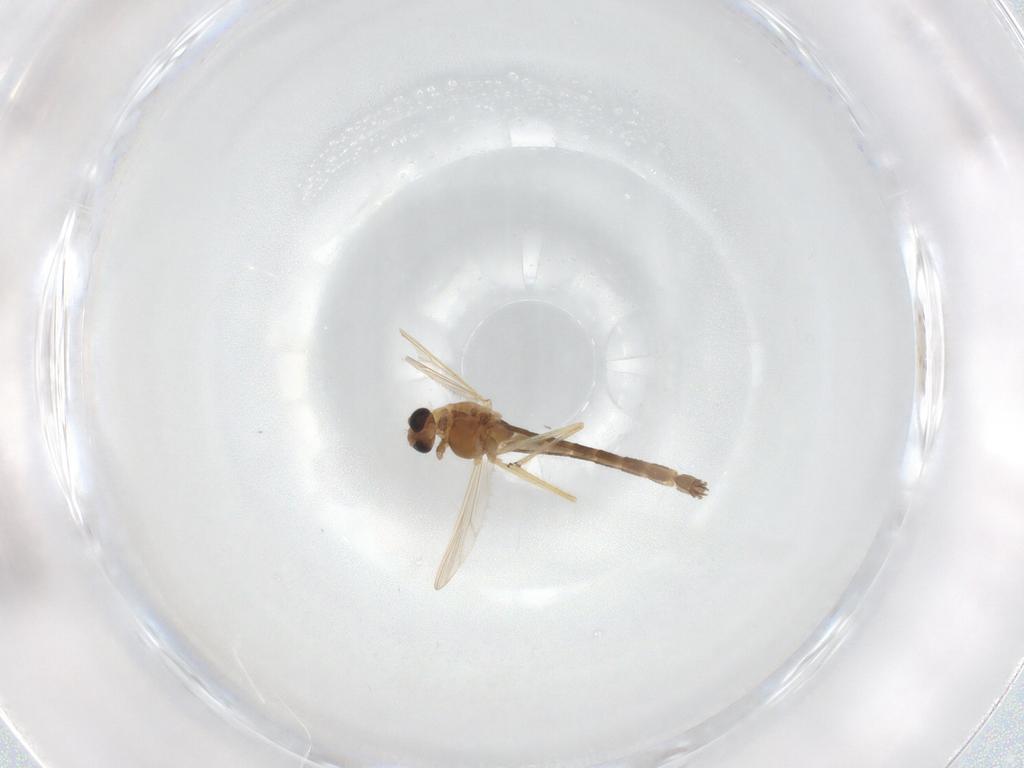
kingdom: Animalia
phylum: Arthropoda
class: Insecta
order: Diptera
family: Chironomidae
